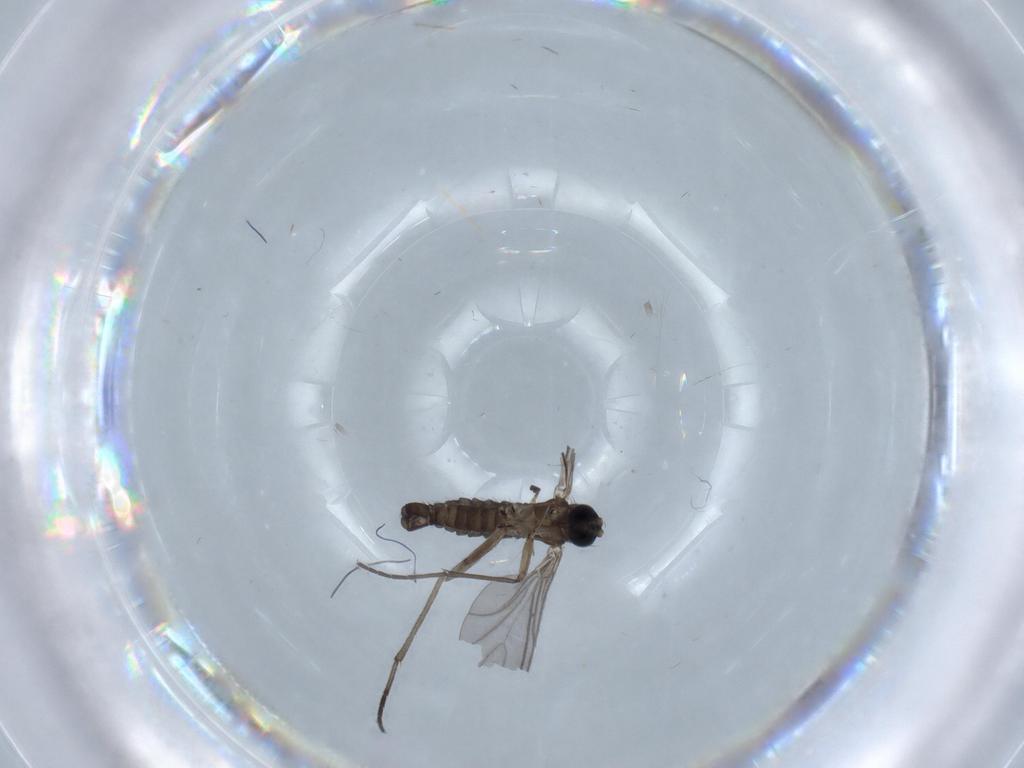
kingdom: Animalia
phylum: Arthropoda
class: Insecta
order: Diptera
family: Sciaridae
